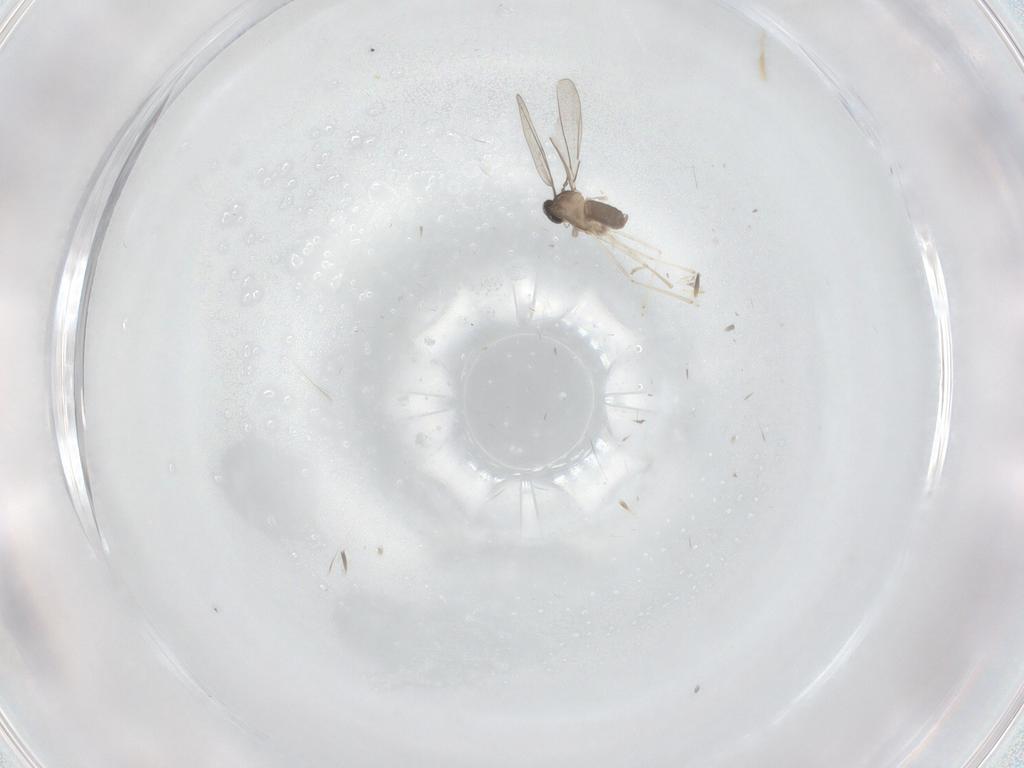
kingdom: Animalia
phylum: Arthropoda
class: Insecta
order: Diptera
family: Cecidomyiidae
